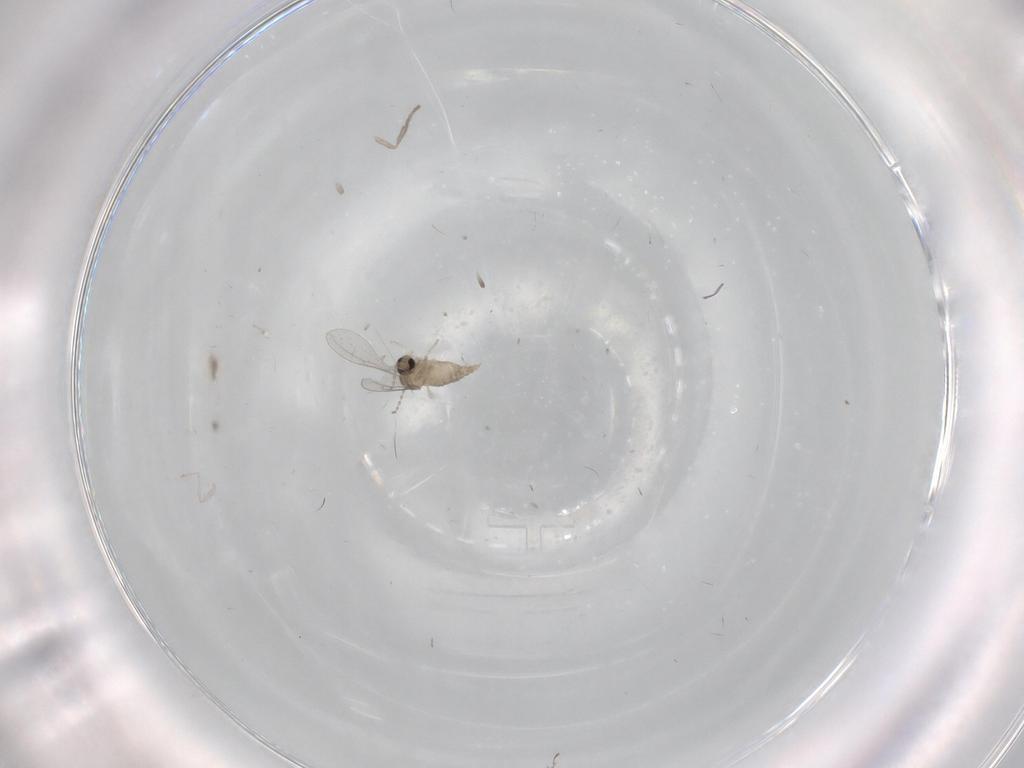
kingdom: Animalia
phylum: Arthropoda
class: Insecta
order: Diptera
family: Cecidomyiidae
